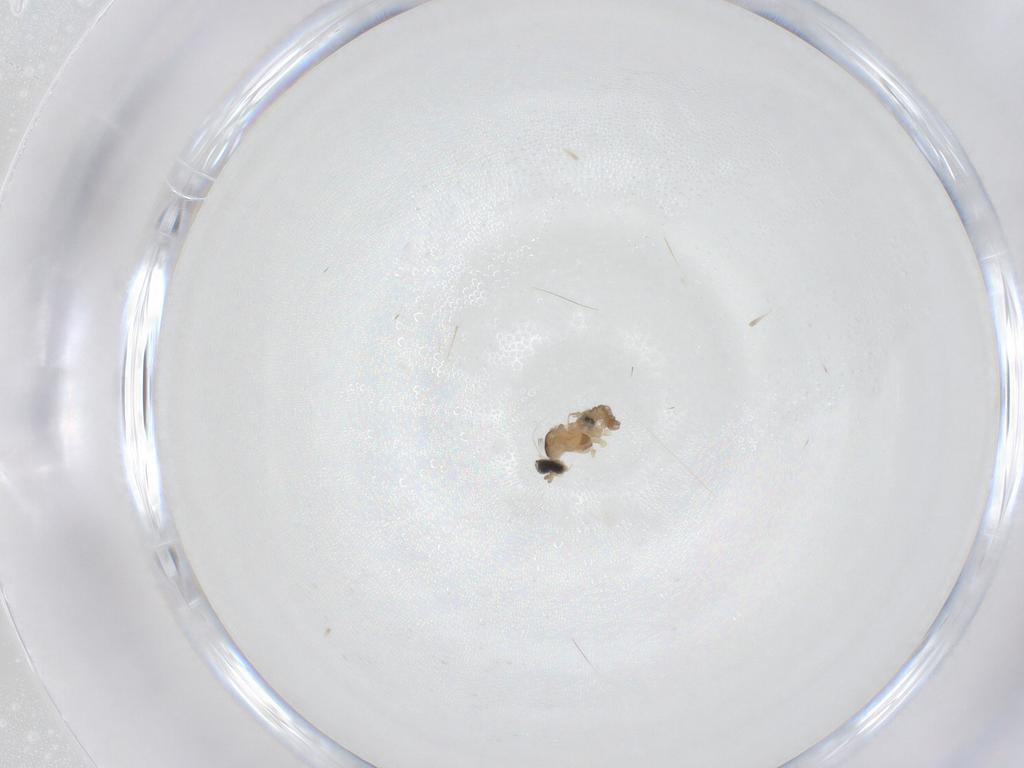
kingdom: Animalia
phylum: Arthropoda
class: Insecta
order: Diptera
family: Cecidomyiidae
